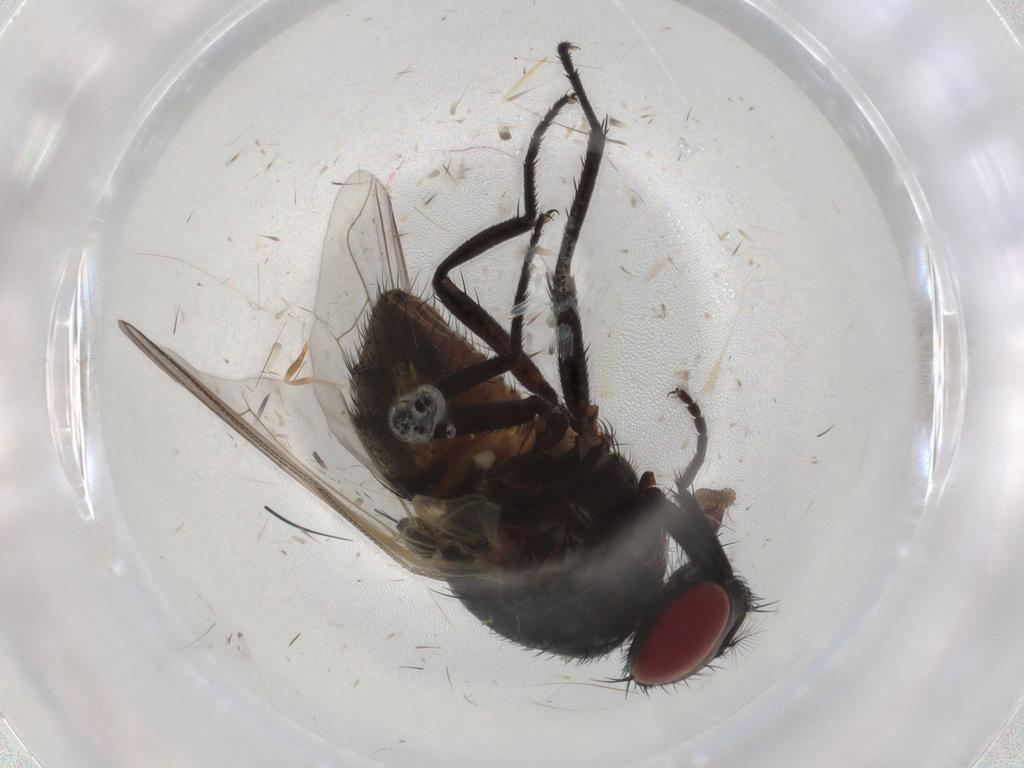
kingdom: Animalia
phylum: Arthropoda
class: Insecta
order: Diptera
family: Muscidae
